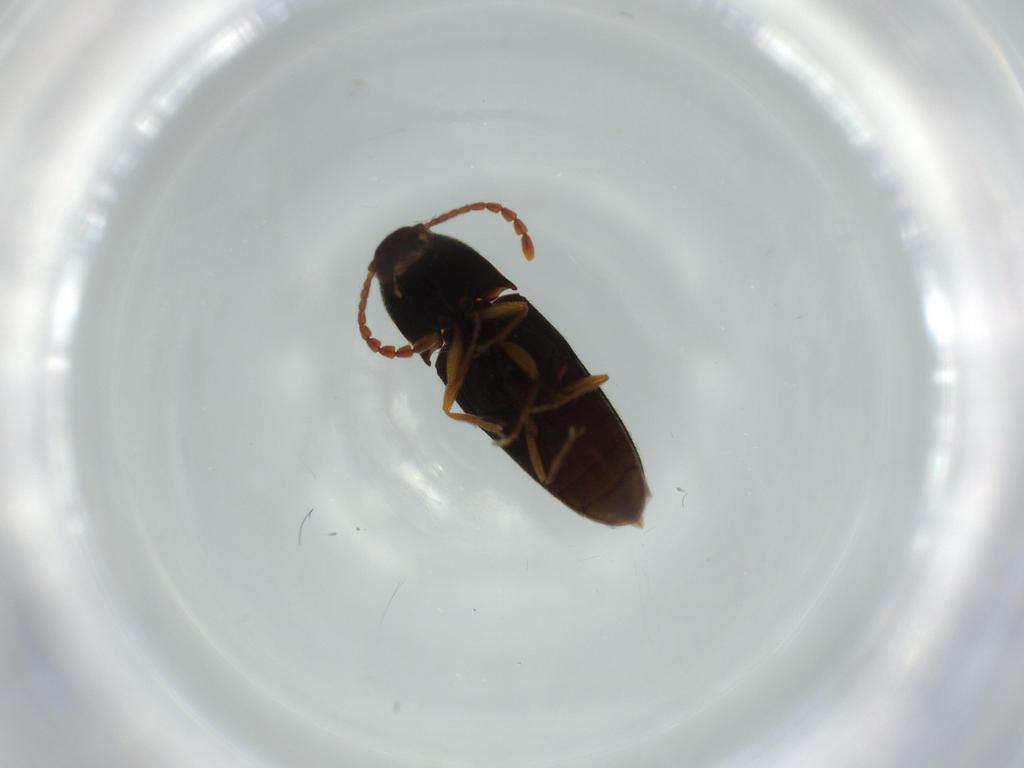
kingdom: Animalia
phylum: Arthropoda
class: Insecta
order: Coleoptera
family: Elateridae
